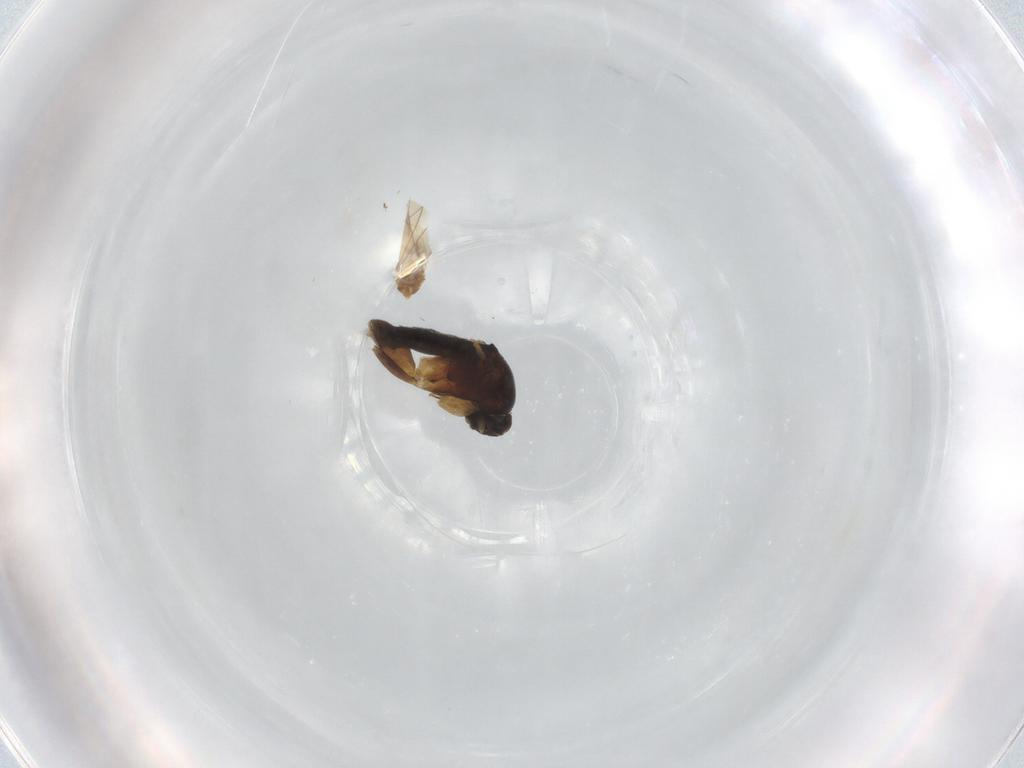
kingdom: Animalia
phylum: Arthropoda
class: Insecta
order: Diptera
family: Phoridae
